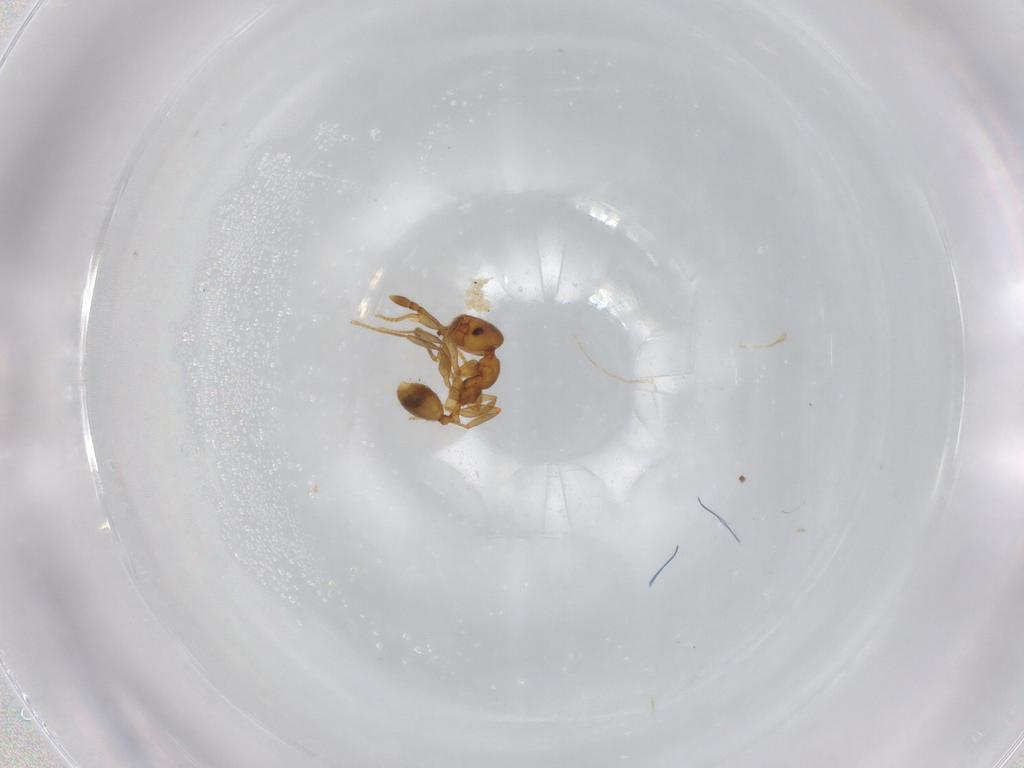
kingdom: Animalia
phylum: Arthropoda
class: Insecta
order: Hymenoptera
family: Formicidae
